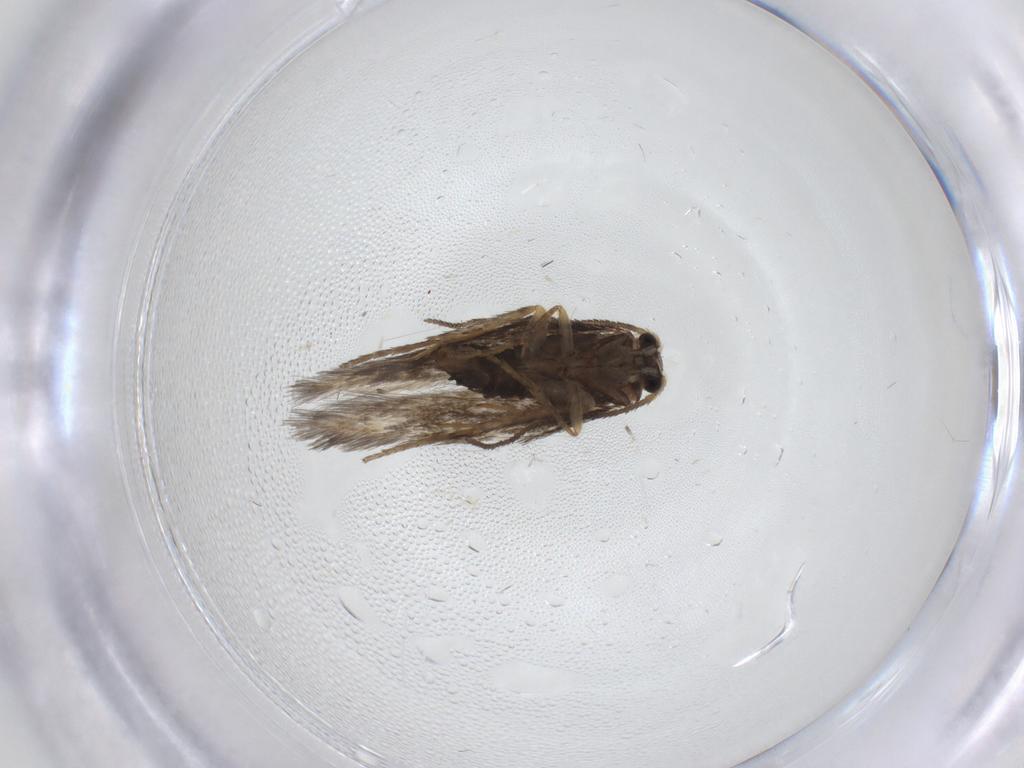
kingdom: Animalia
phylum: Arthropoda
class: Insecta
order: Lepidoptera
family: Nepticulidae
